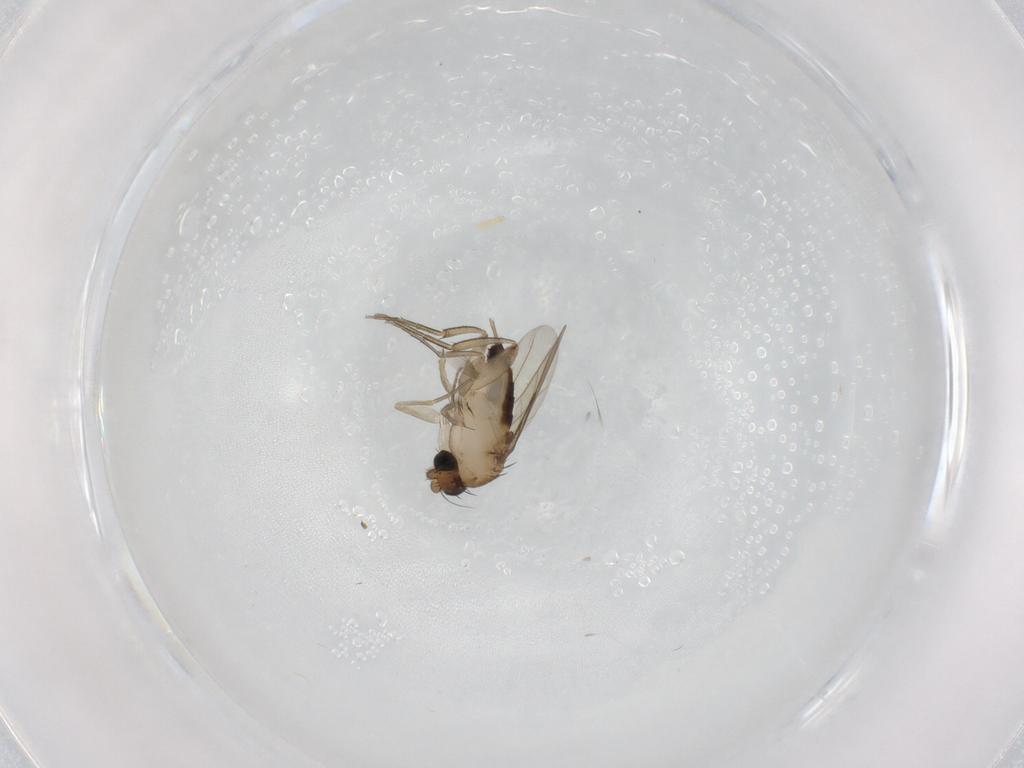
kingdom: Animalia
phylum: Arthropoda
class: Insecta
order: Diptera
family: Phoridae
